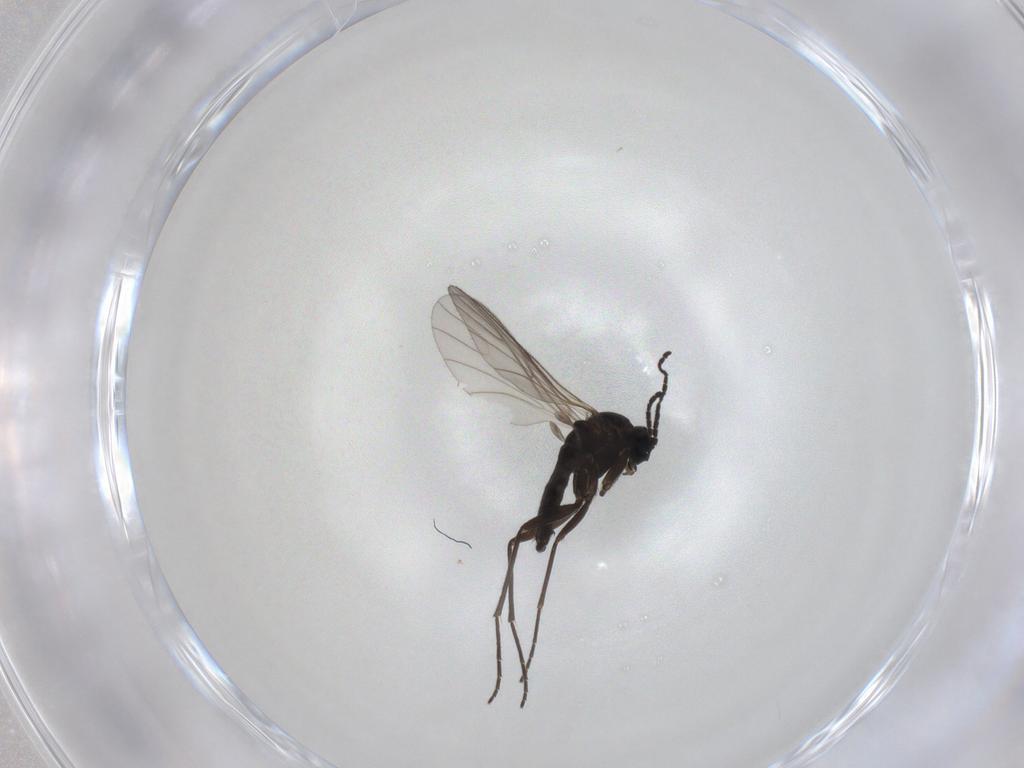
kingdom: Animalia
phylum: Arthropoda
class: Insecta
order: Diptera
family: Sciaridae
